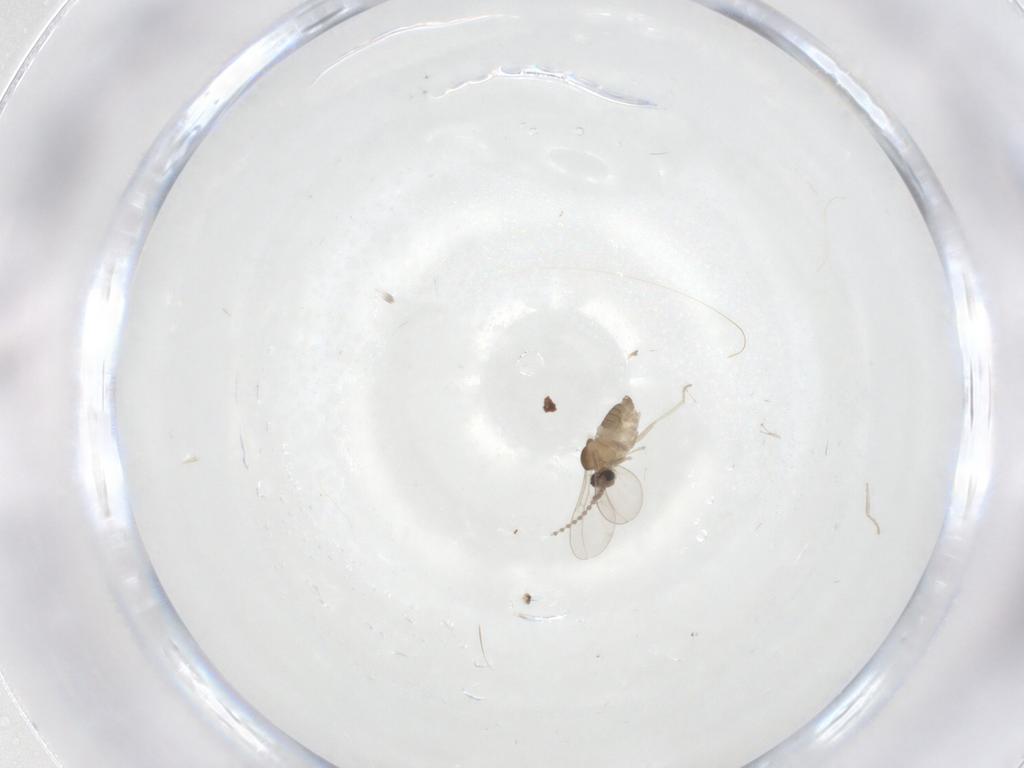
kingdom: Animalia
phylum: Arthropoda
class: Insecta
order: Diptera
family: Cecidomyiidae
